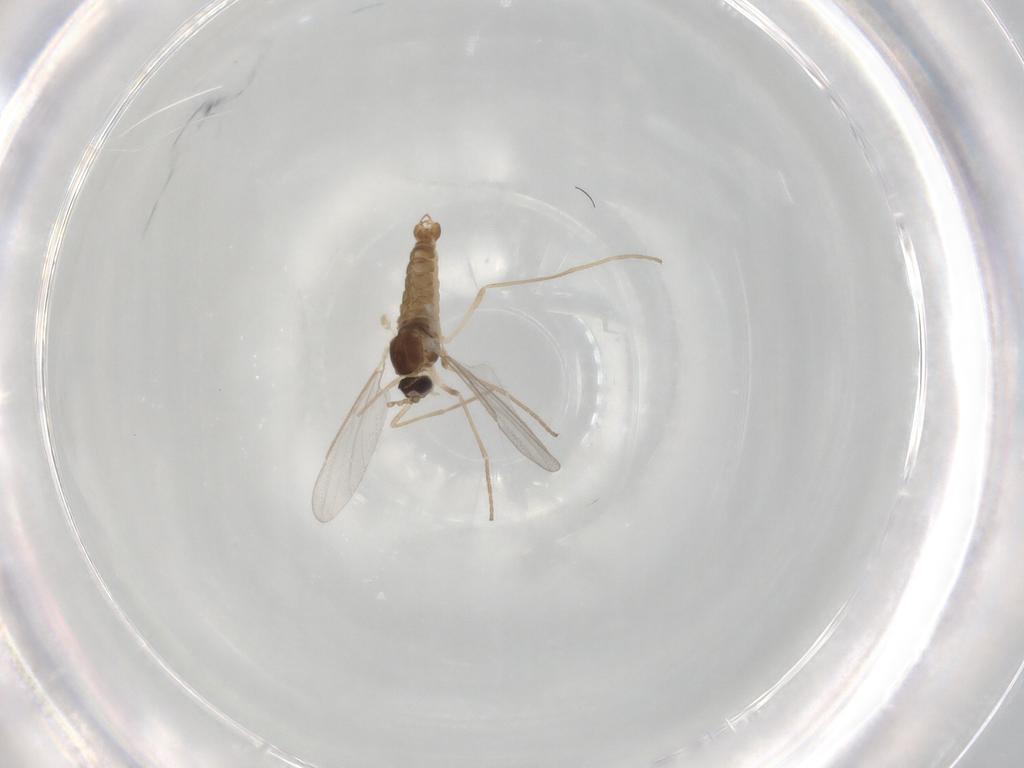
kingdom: Animalia
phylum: Arthropoda
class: Insecta
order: Diptera
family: Cecidomyiidae
